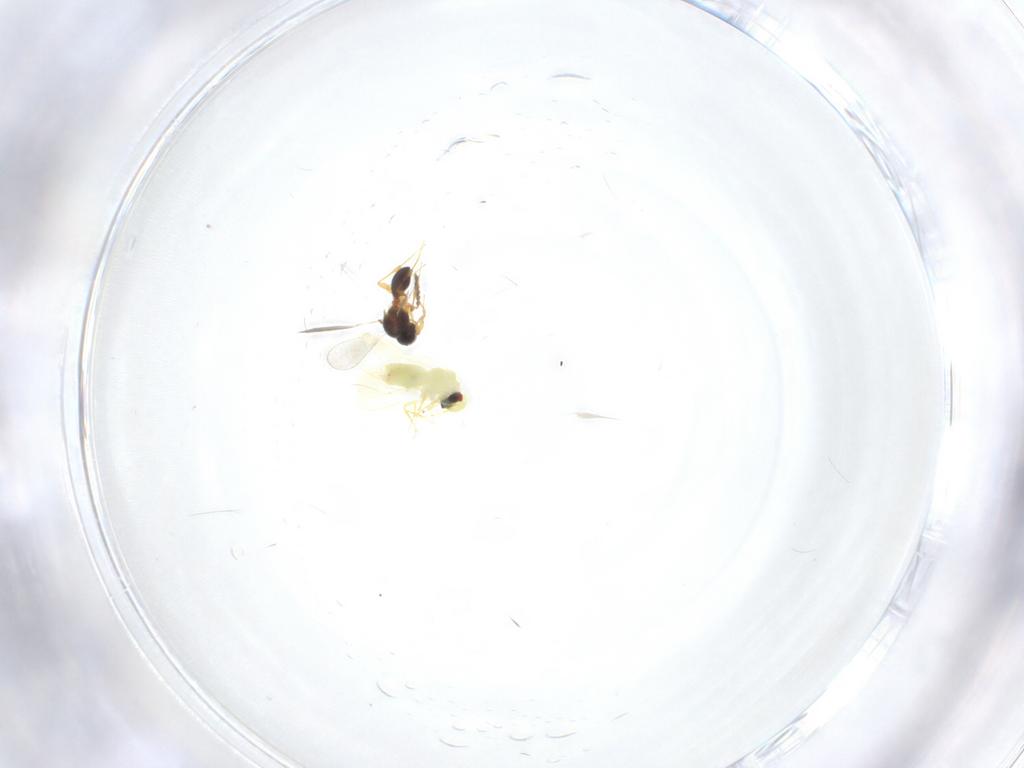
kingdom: Animalia
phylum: Arthropoda
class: Insecta
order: Hemiptera
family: Aleyrodidae
